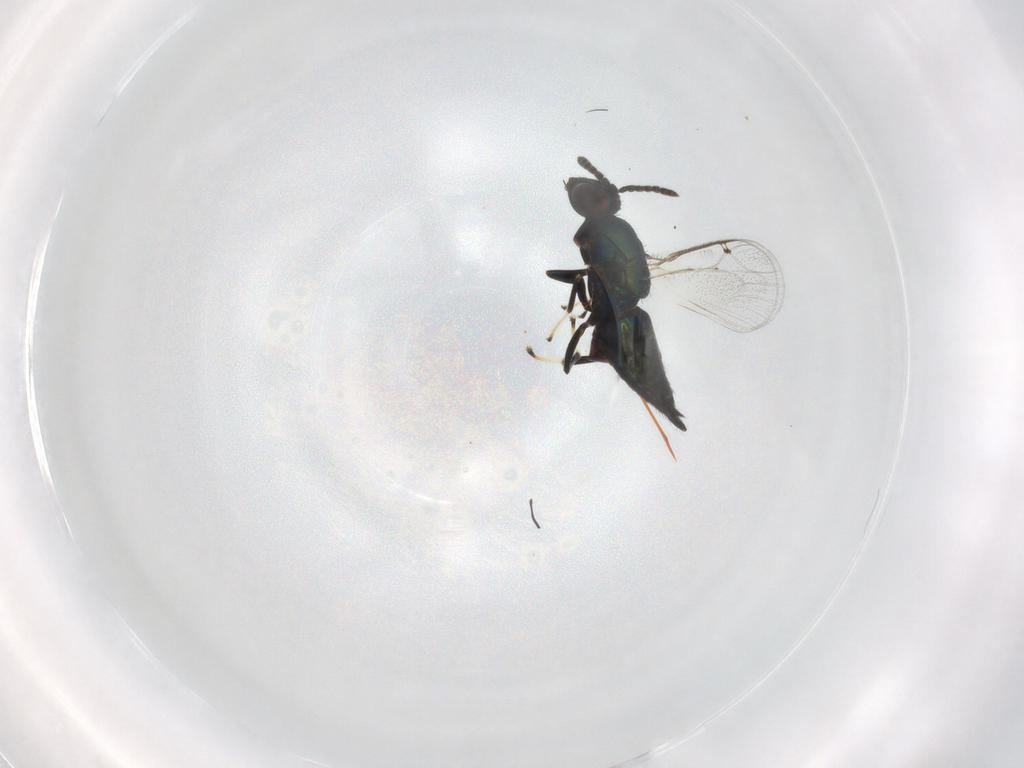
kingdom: Animalia
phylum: Arthropoda
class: Insecta
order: Hymenoptera
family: Eulophidae
